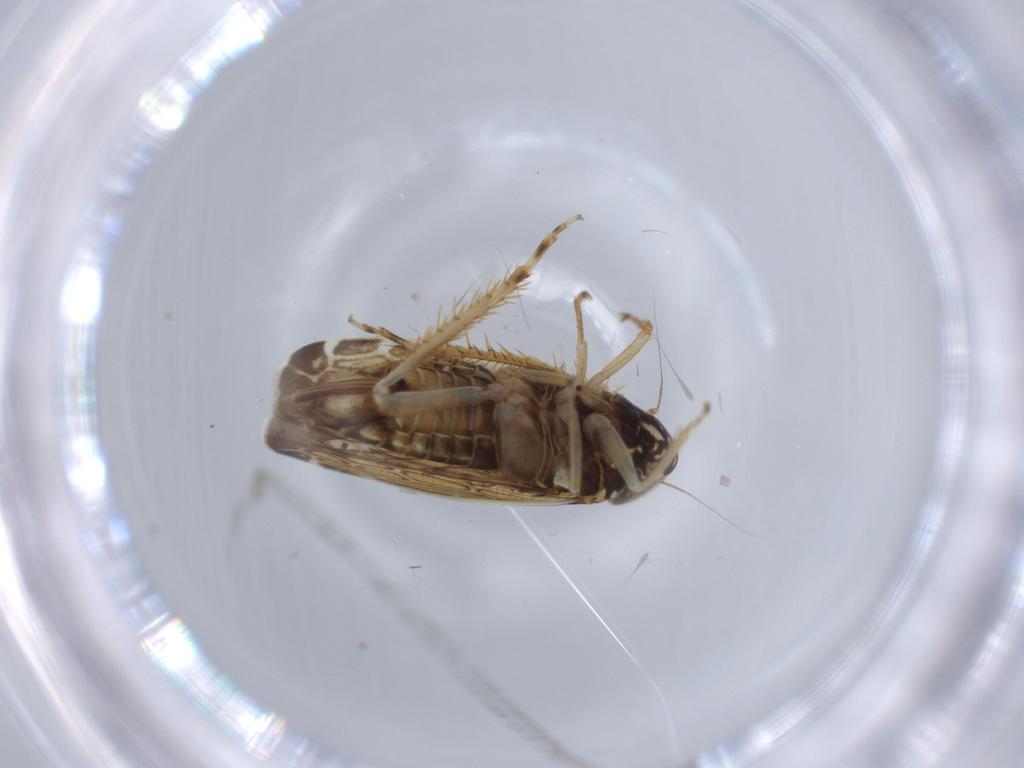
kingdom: Animalia
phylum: Arthropoda
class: Insecta
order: Hemiptera
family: Cicadellidae
